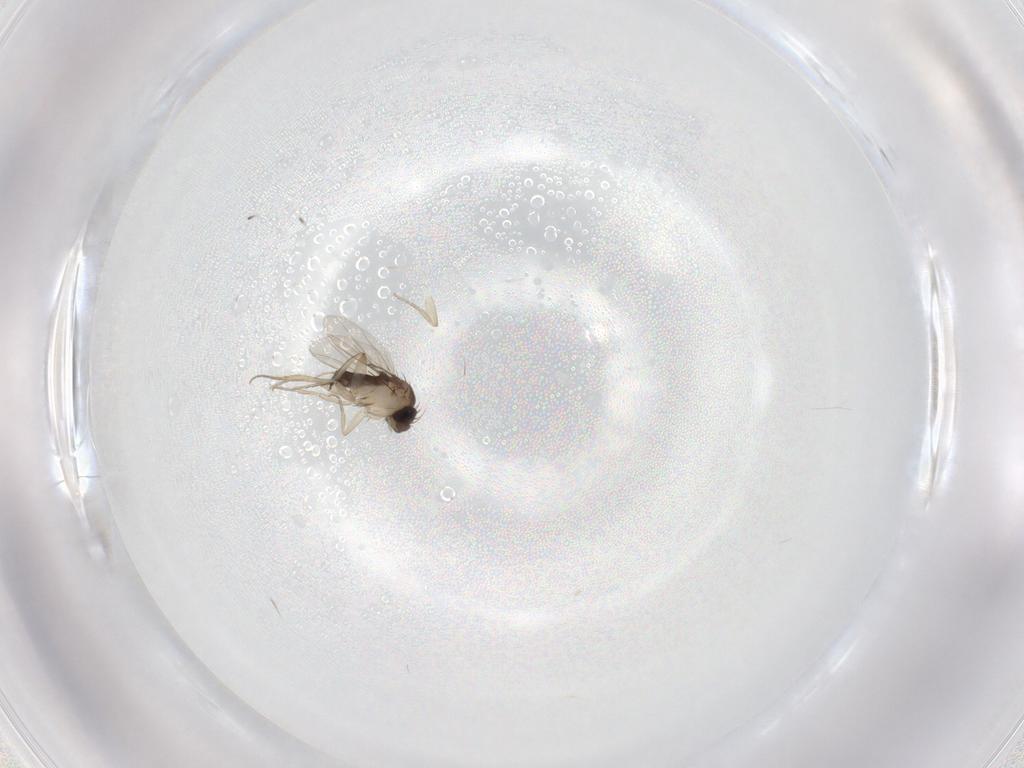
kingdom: Animalia
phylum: Arthropoda
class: Insecta
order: Diptera
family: Phoridae
